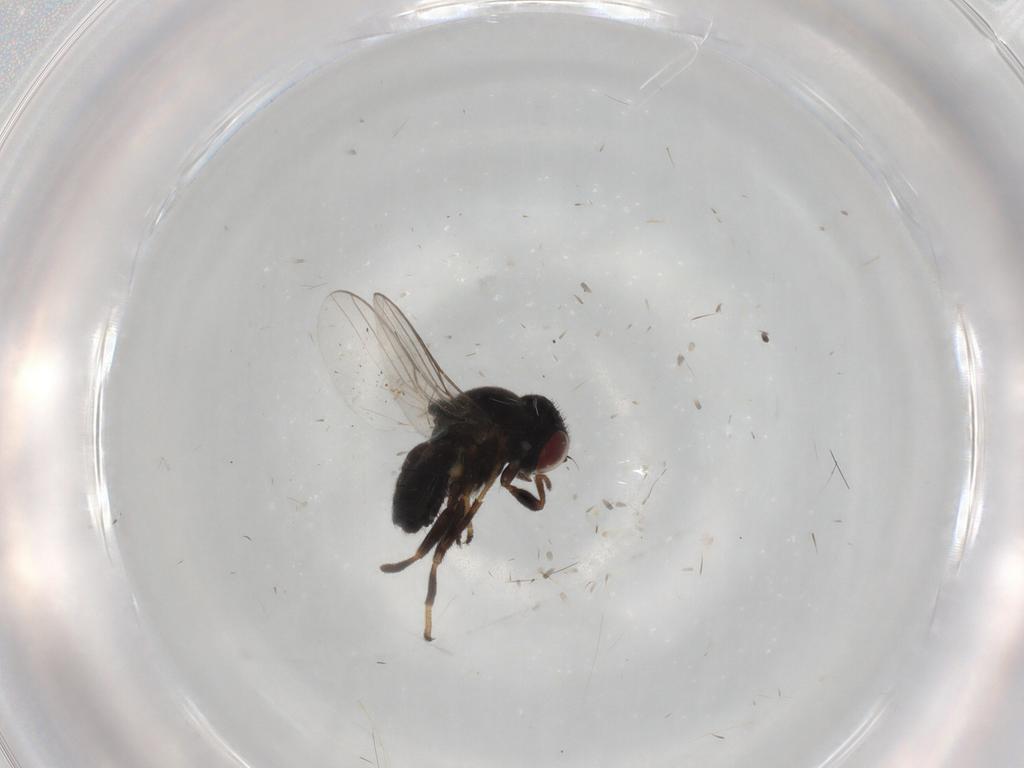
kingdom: Animalia
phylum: Arthropoda
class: Insecta
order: Diptera
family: Chloropidae
